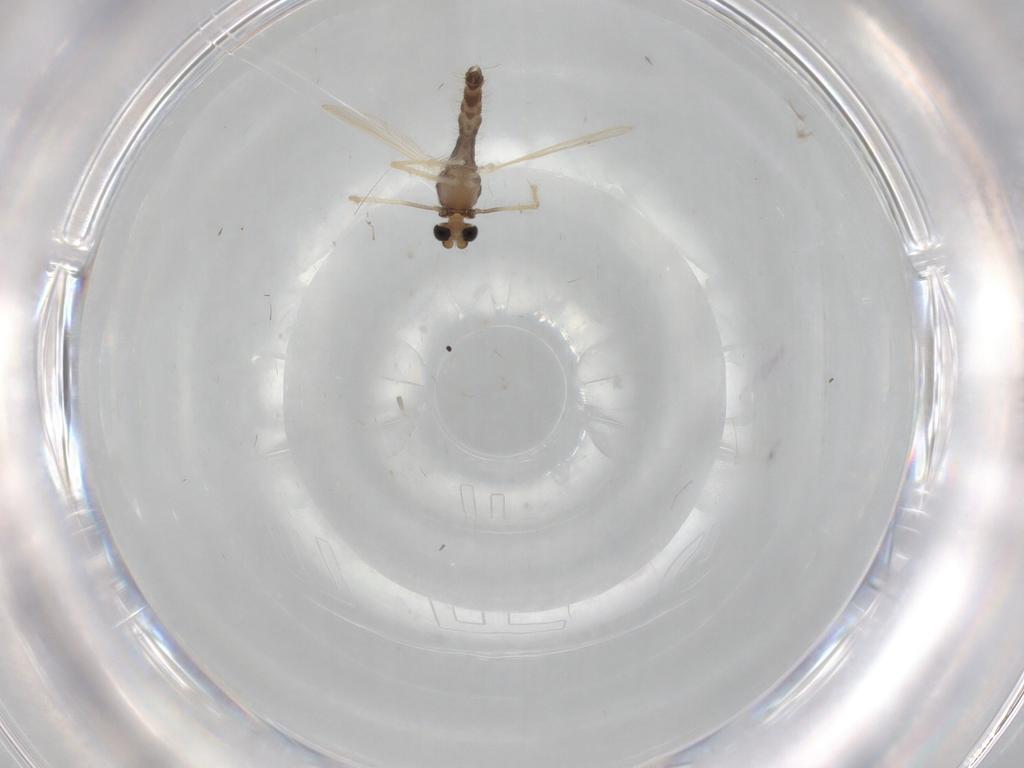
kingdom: Animalia
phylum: Arthropoda
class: Insecta
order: Diptera
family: Chironomidae
